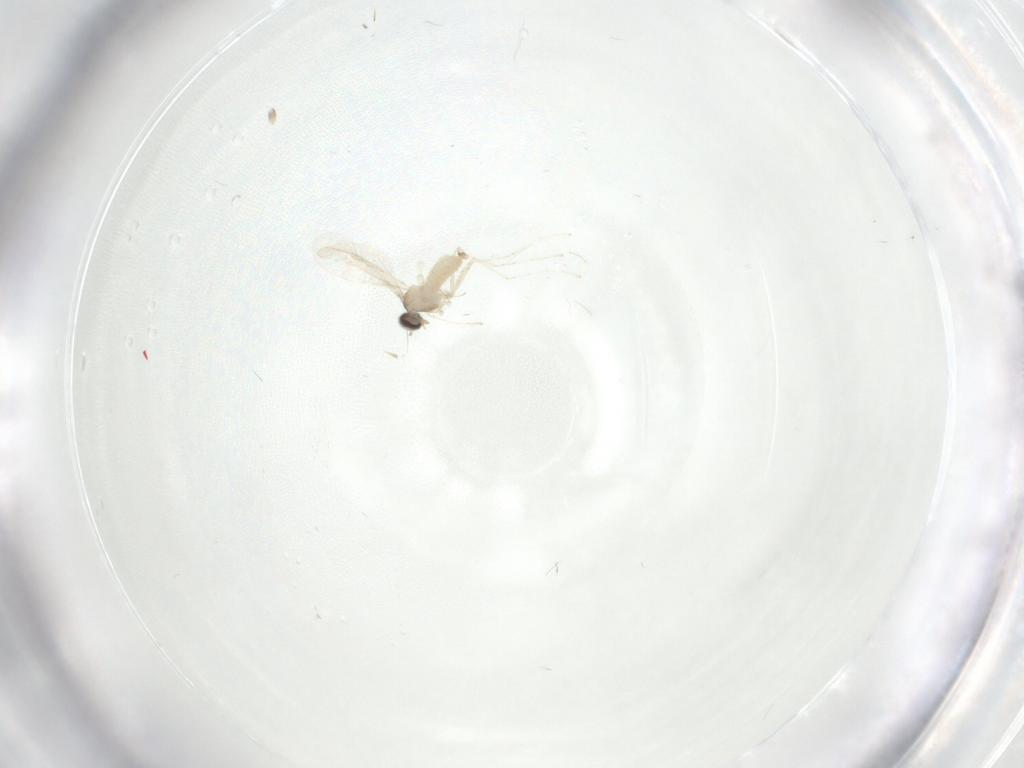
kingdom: Animalia
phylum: Arthropoda
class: Insecta
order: Diptera
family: Cecidomyiidae
